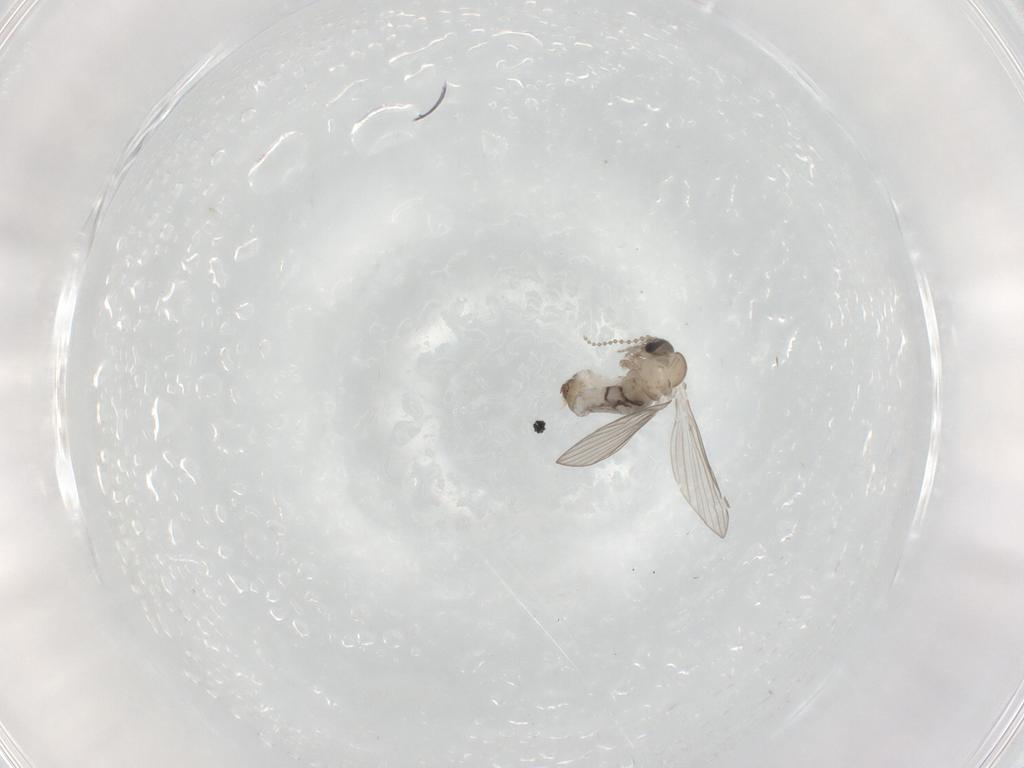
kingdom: Animalia
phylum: Arthropoda
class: Insecta
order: Diptera
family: Psychodidae
